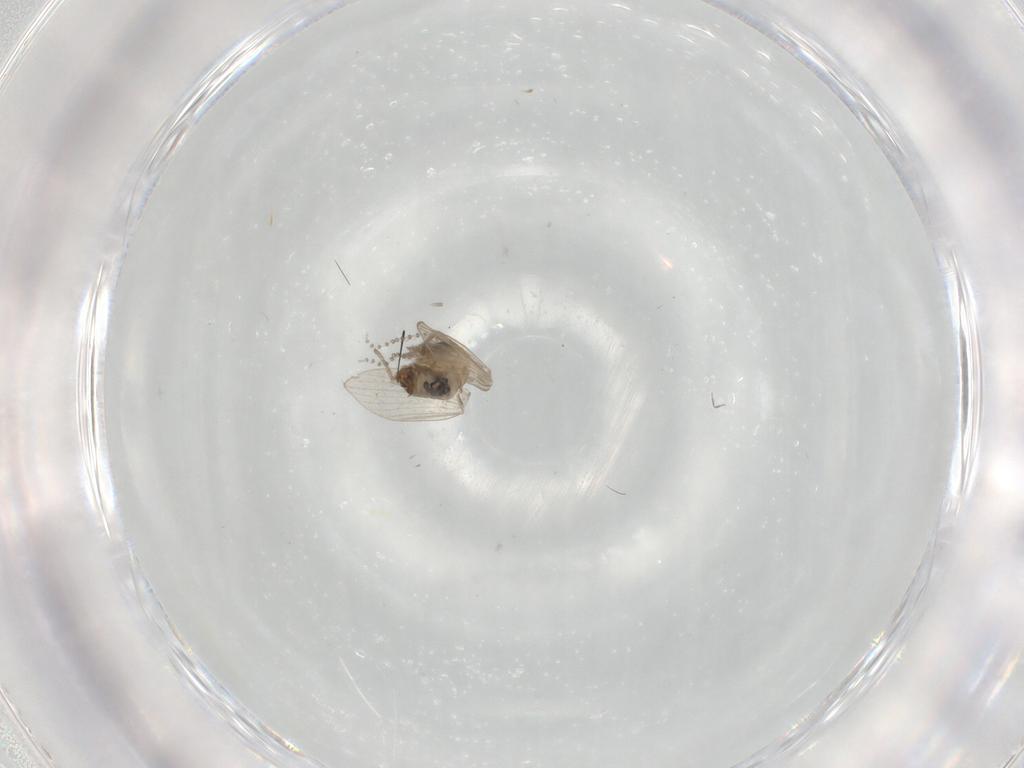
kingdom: Animalia
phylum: Arthropoda
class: Insecta
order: Diptera
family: Psychodidae
